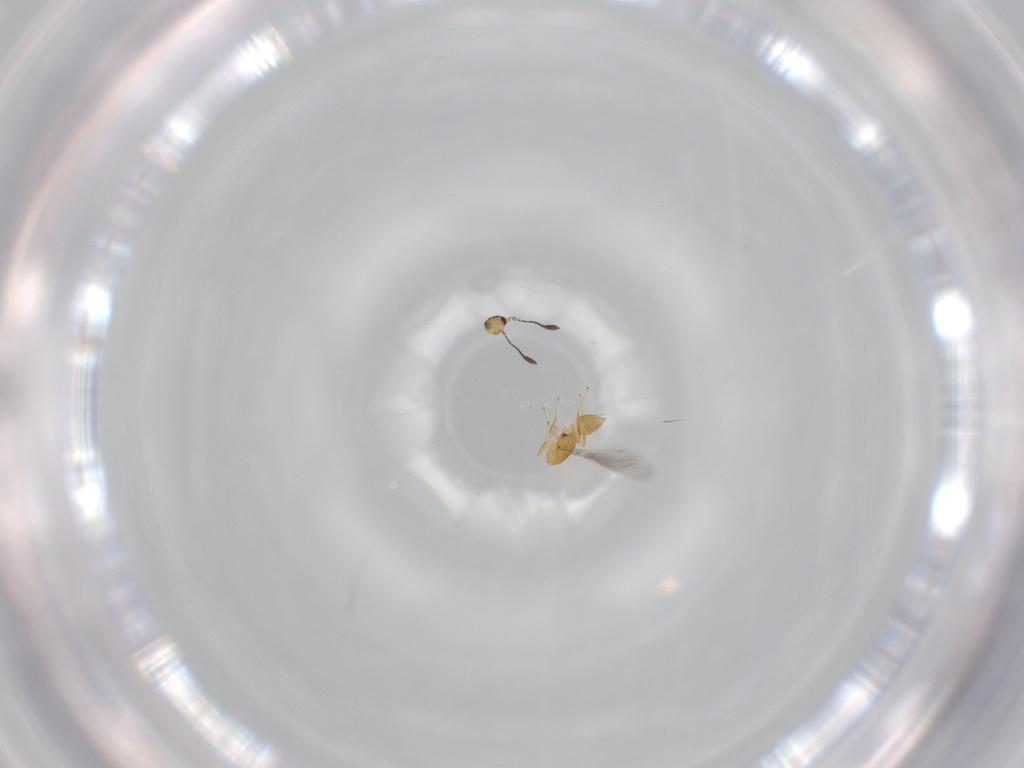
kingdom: Animalia
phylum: Arthropoda
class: Insecta
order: Hymenoptera
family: Mymaridae
